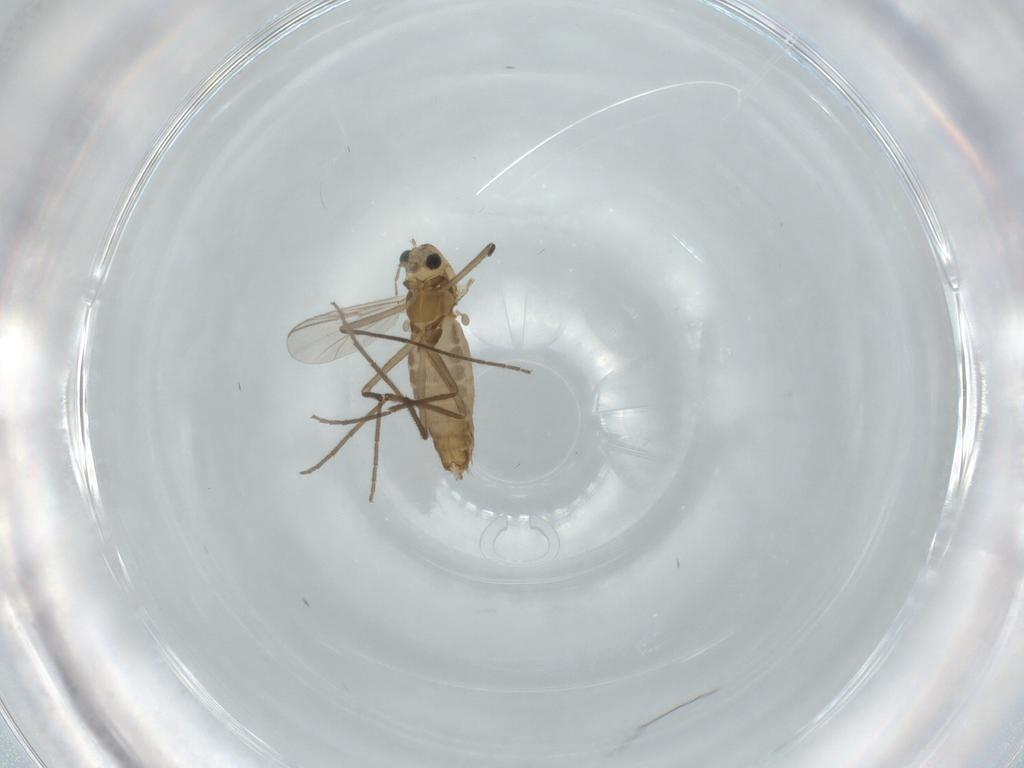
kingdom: Animalia
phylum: Arthropoda
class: Insecta
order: Diptera
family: Chironomidae
